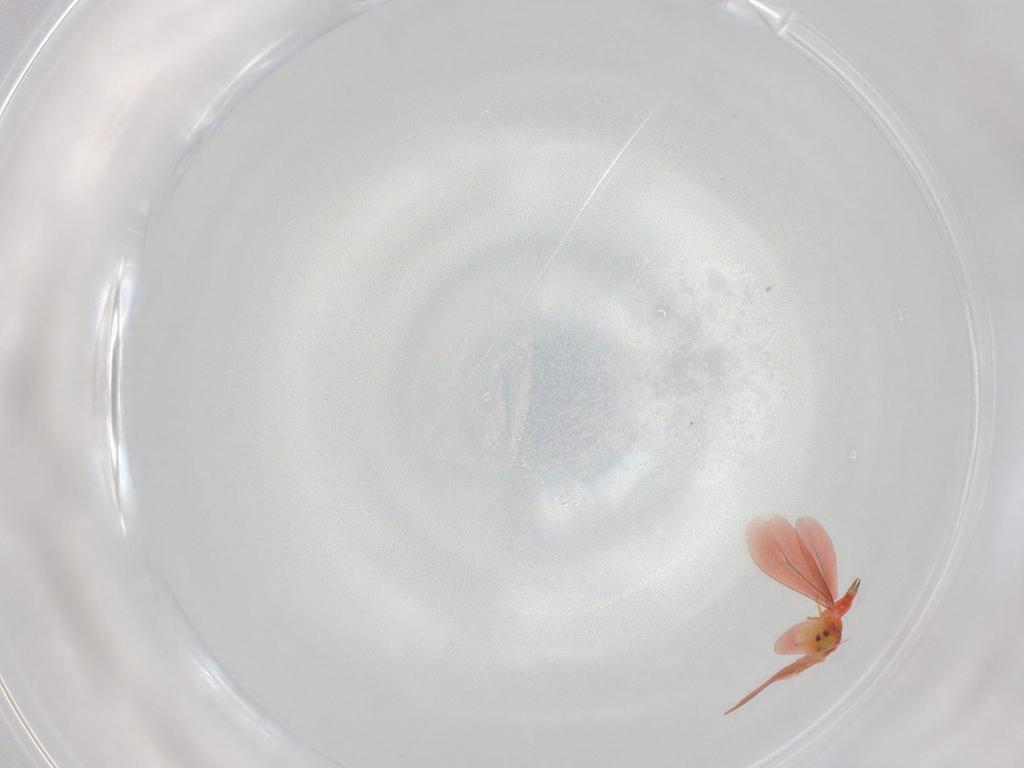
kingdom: Animalia
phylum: Arthropoda
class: Insecta
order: Hemiptera
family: Aleyrodidae
